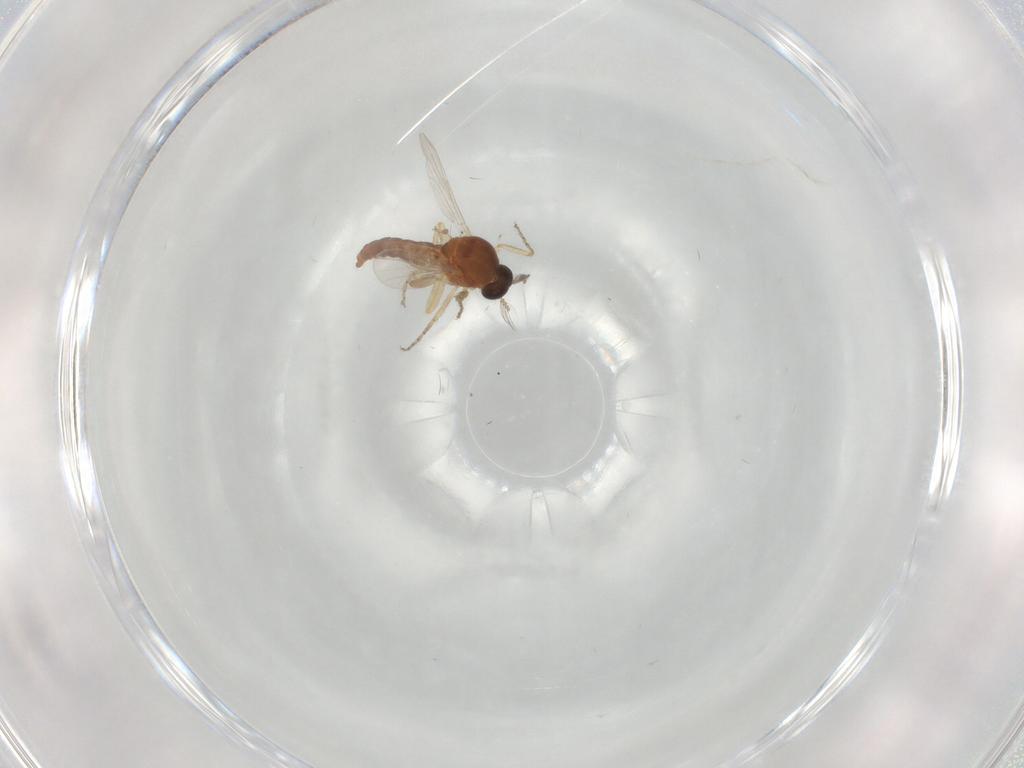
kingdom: Animalia
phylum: Arthropoda
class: Insecta
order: Diptera
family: Ceratopogonidae
